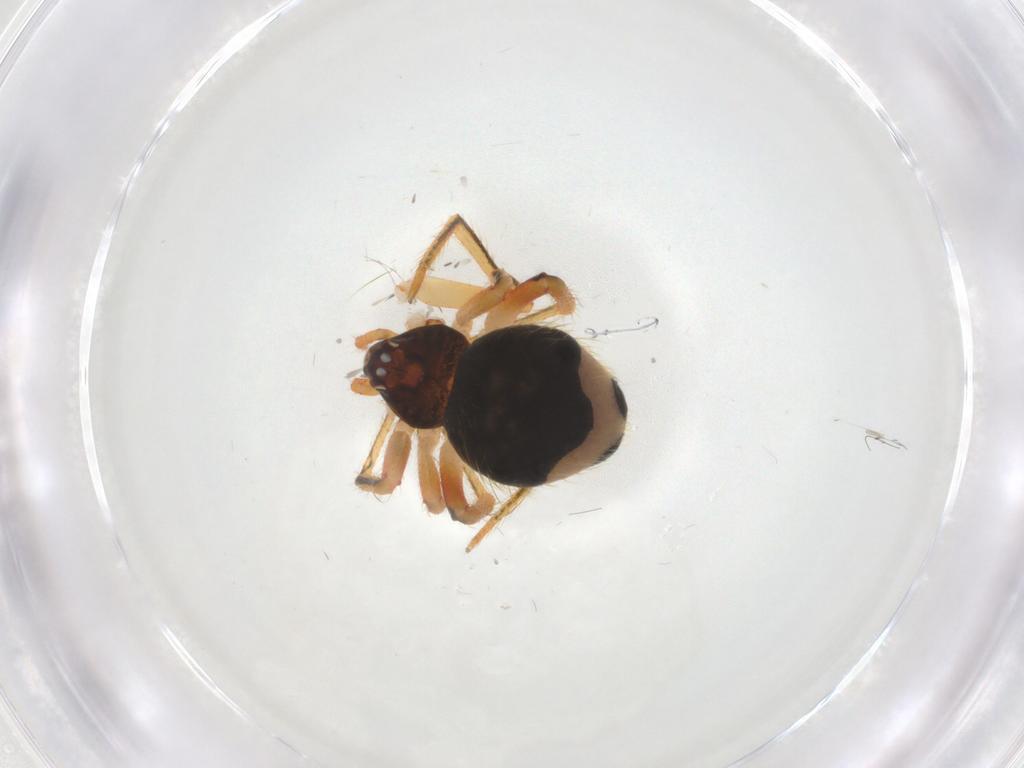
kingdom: Animalia
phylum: Arthropoda
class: Arachnida
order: Araneae
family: Theridiidae
